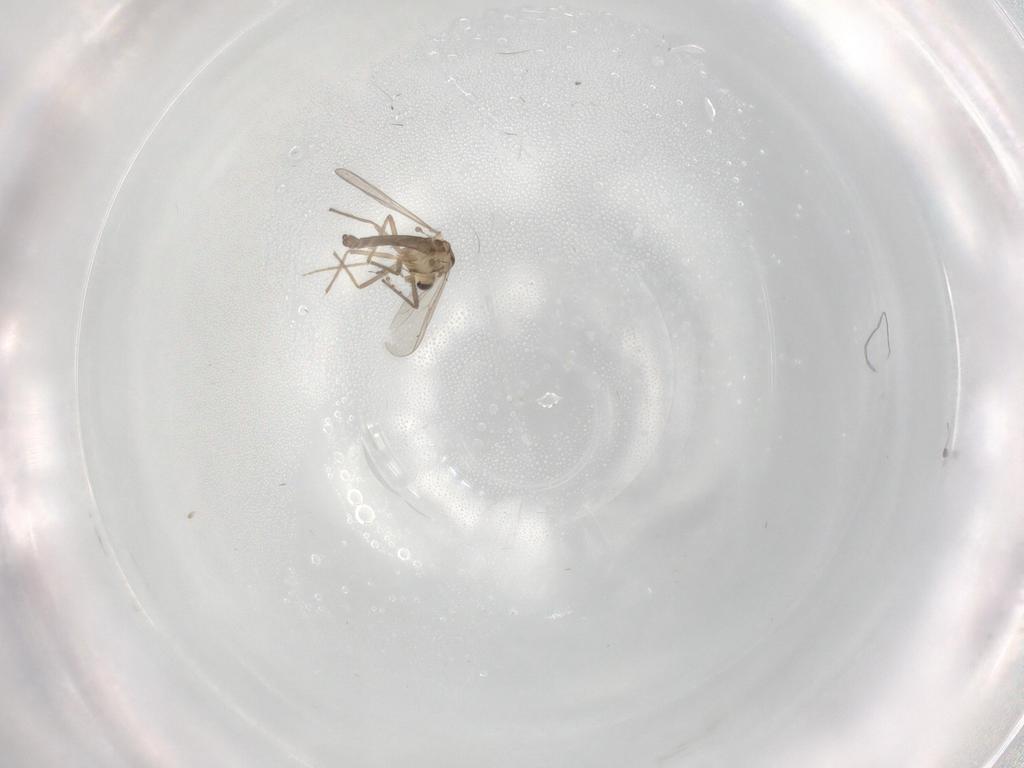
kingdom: Animalia
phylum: Arthropoda
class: Insecta
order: Diptera
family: Chironomidae
